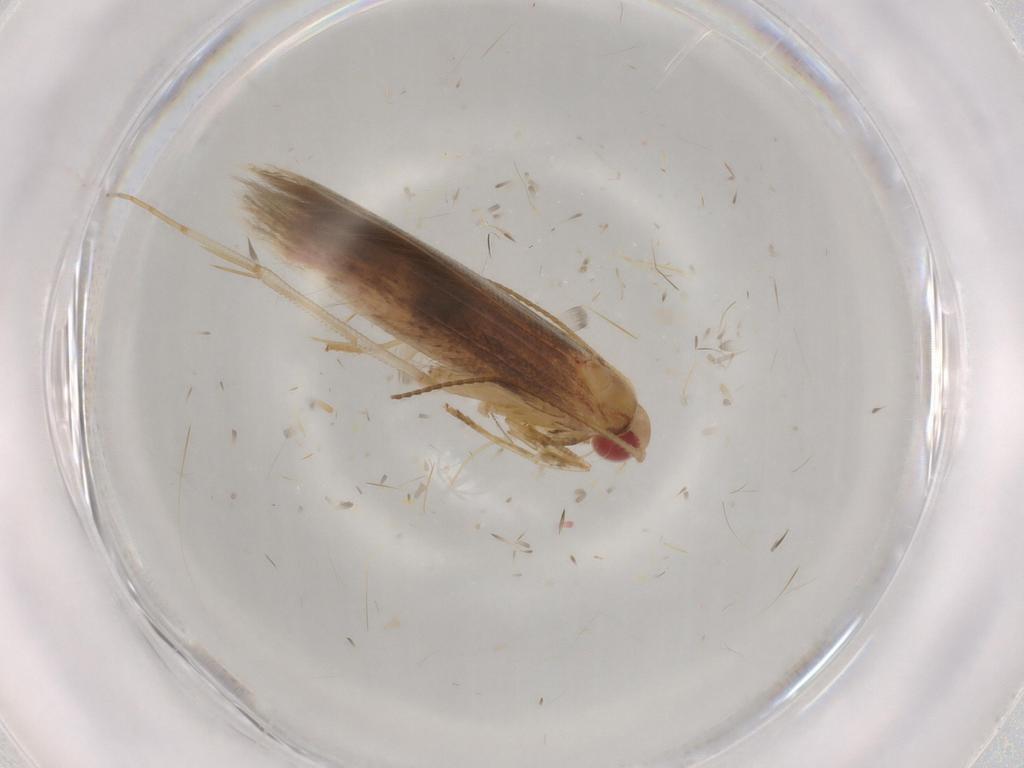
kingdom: Animalia
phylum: Arthropoda
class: Insecta
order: Lepidoptera
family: Cosmopterigidae
